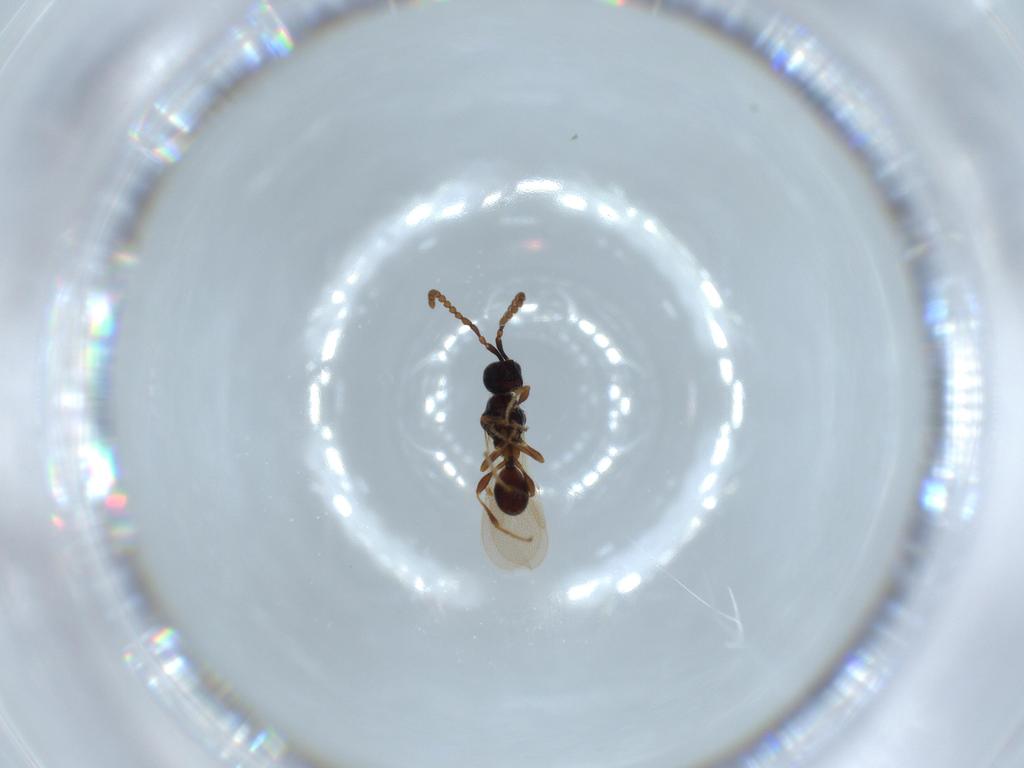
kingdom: Animalia
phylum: Arthropoda
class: Insecta
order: Hymenoptera
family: Diapriidae
